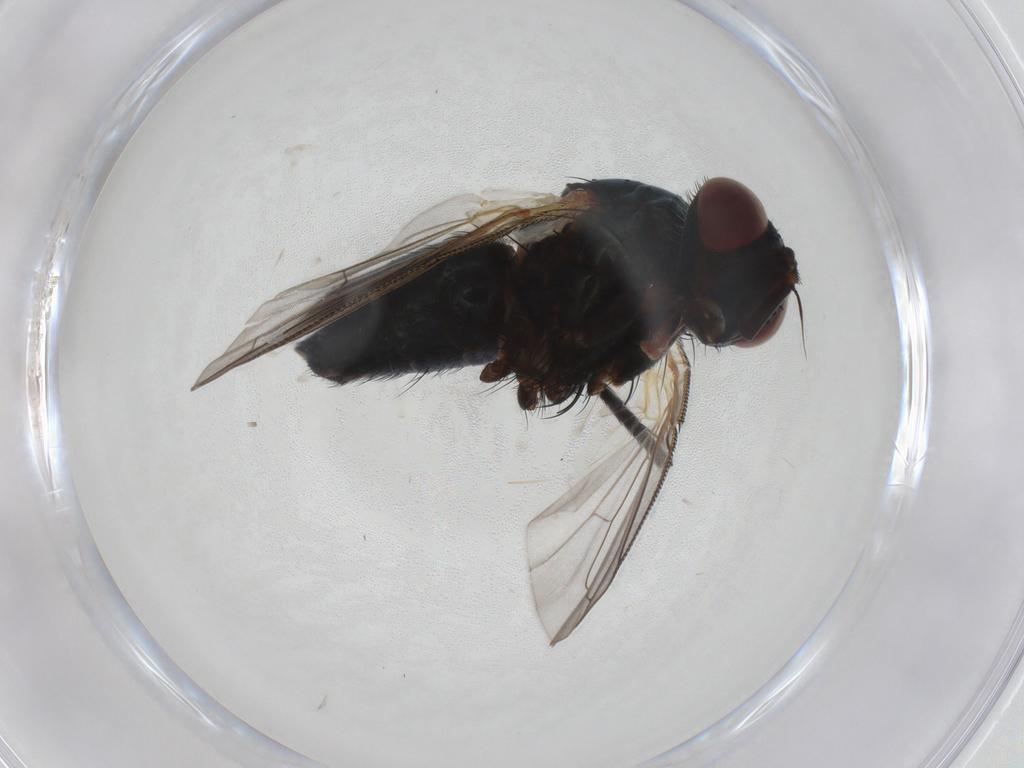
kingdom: Animalia
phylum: Arthropoda
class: Insecta
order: Diptera
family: Tachinidae
